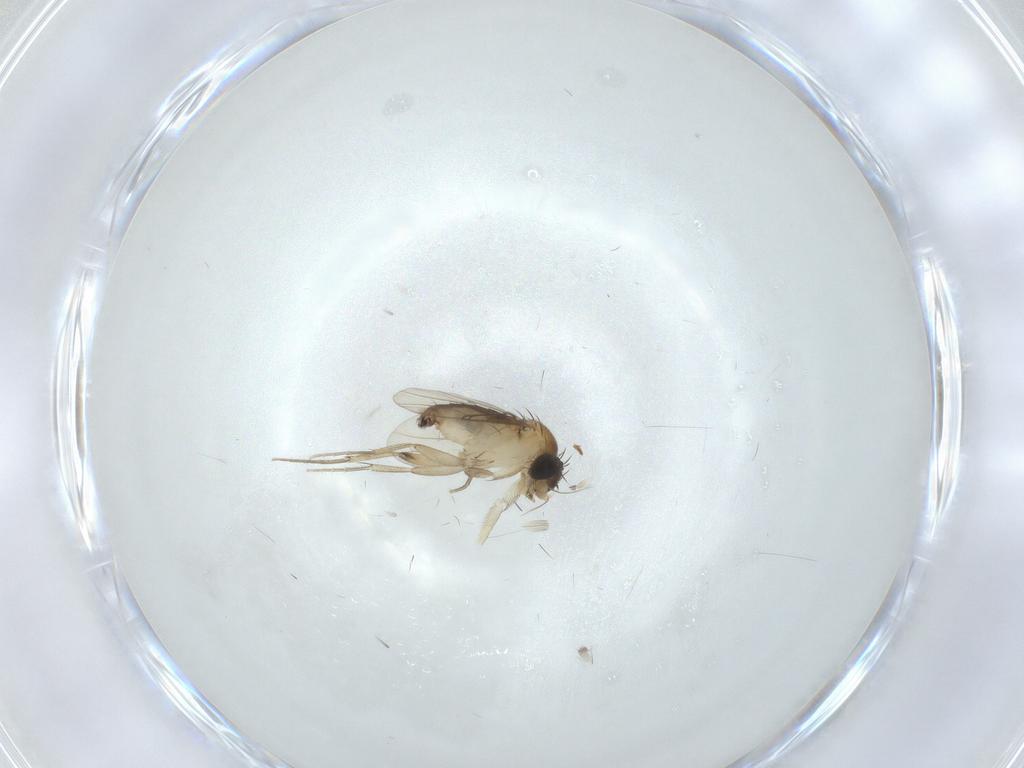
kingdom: Animalia
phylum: Arthropoda
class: Insecta
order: Diptera
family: Phoridae
